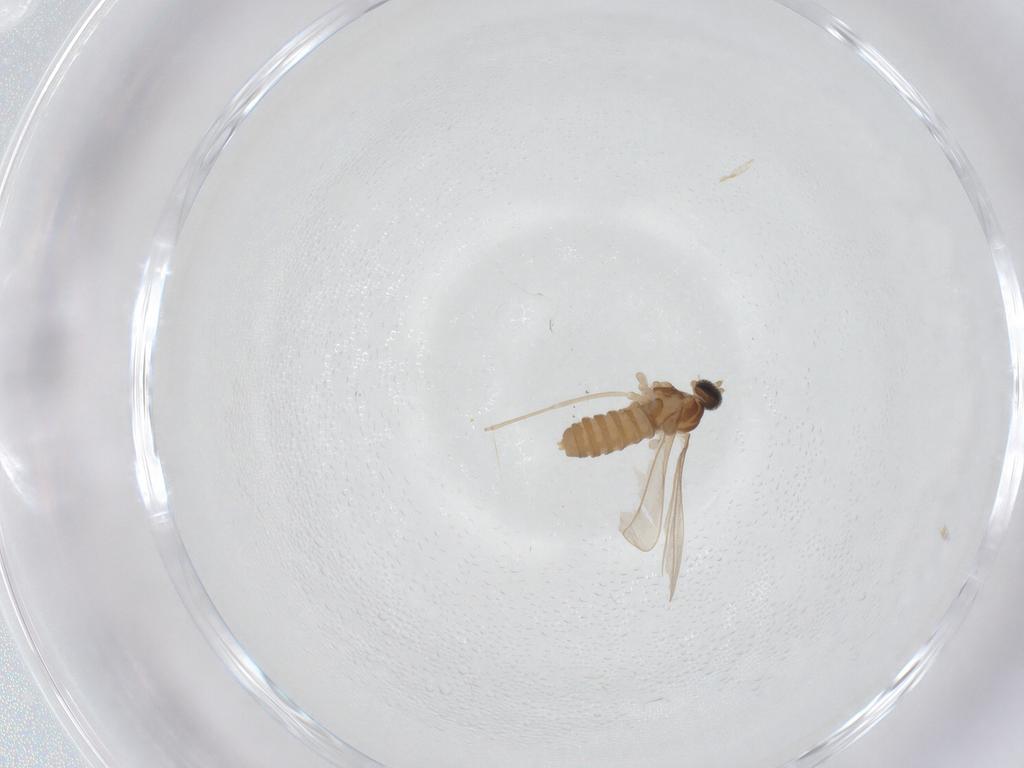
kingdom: Animalia
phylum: Arthropoda
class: Insecta
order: Diptera
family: Cecidomyiidae
